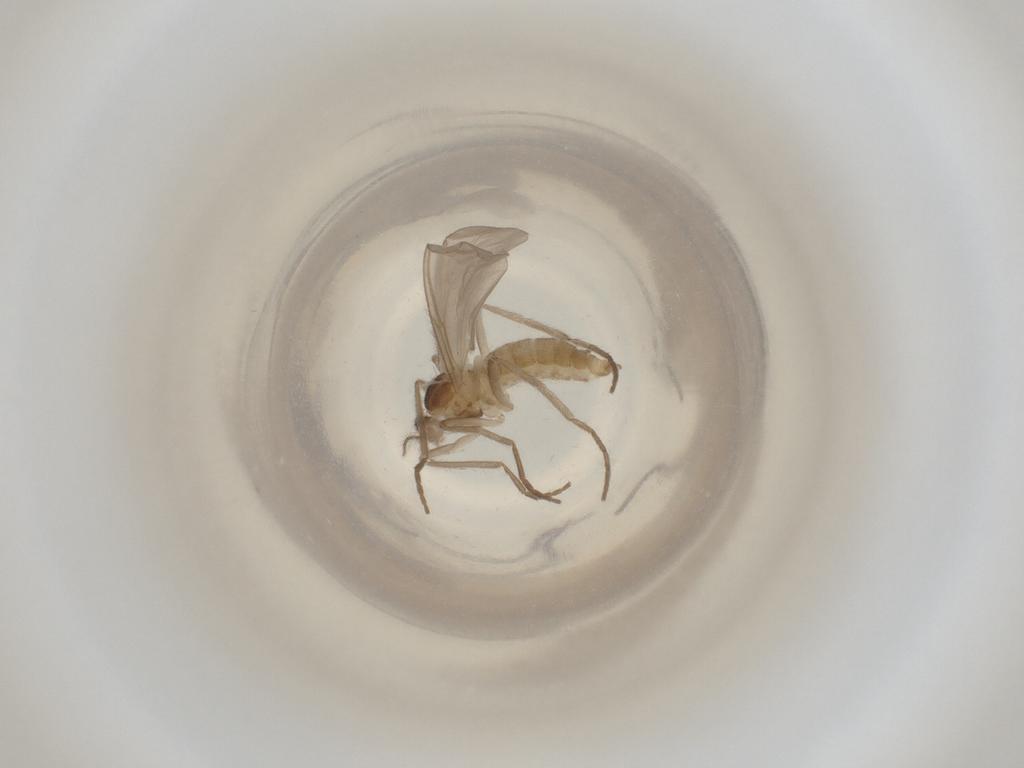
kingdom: Animalia
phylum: Arthropoda
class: Insecta
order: Diptera
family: Cecidomyiidae
